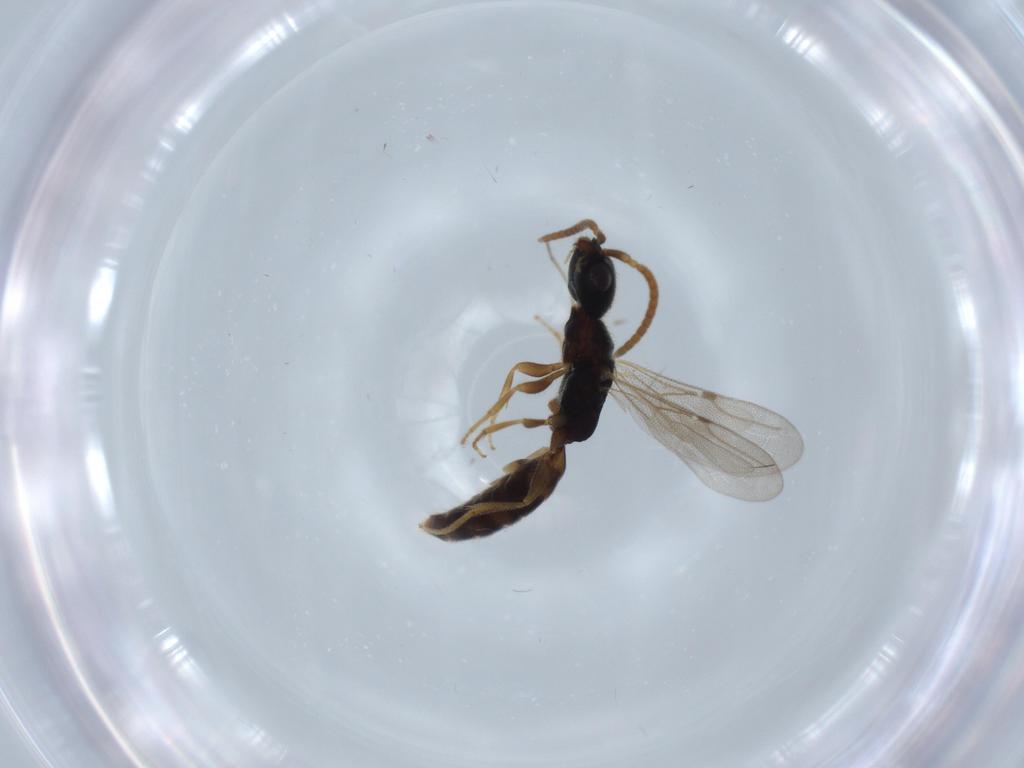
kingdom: Animalia
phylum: Arthropoda
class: Insecta
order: Hymenoptera
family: Bethylidae
